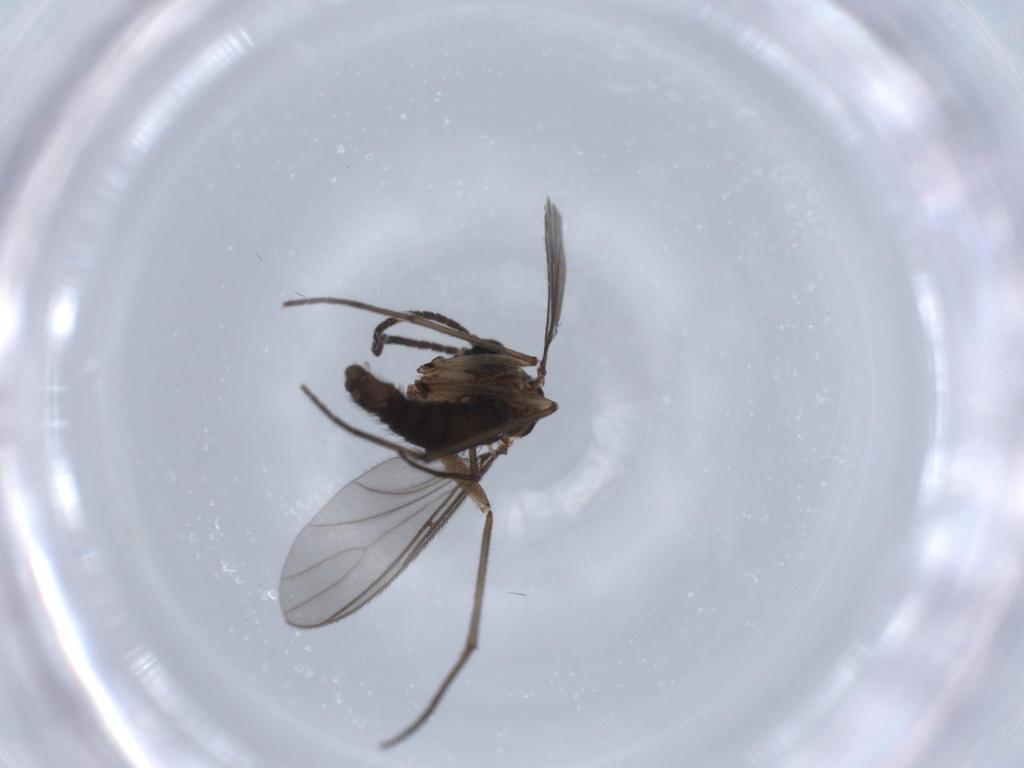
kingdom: Animalia
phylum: Arthropoda
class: Insecta
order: Diptera
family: Sciaridae
